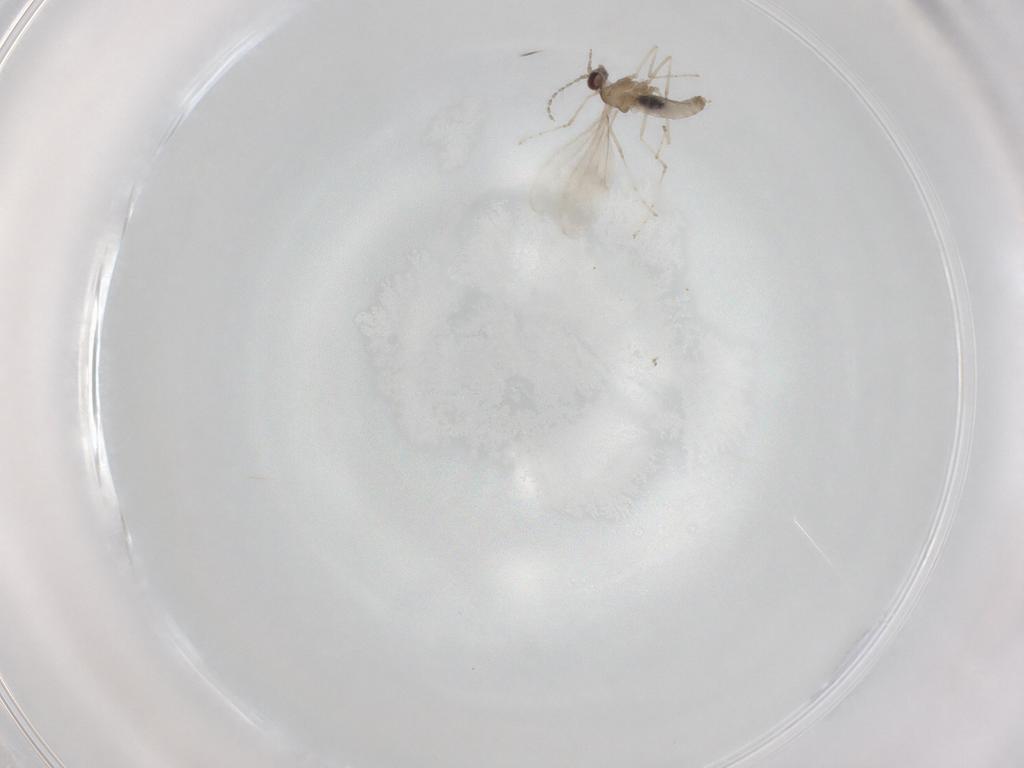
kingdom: Animalia
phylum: Arthropoda
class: Insecta
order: Diptera
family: Cecidomyiidae
